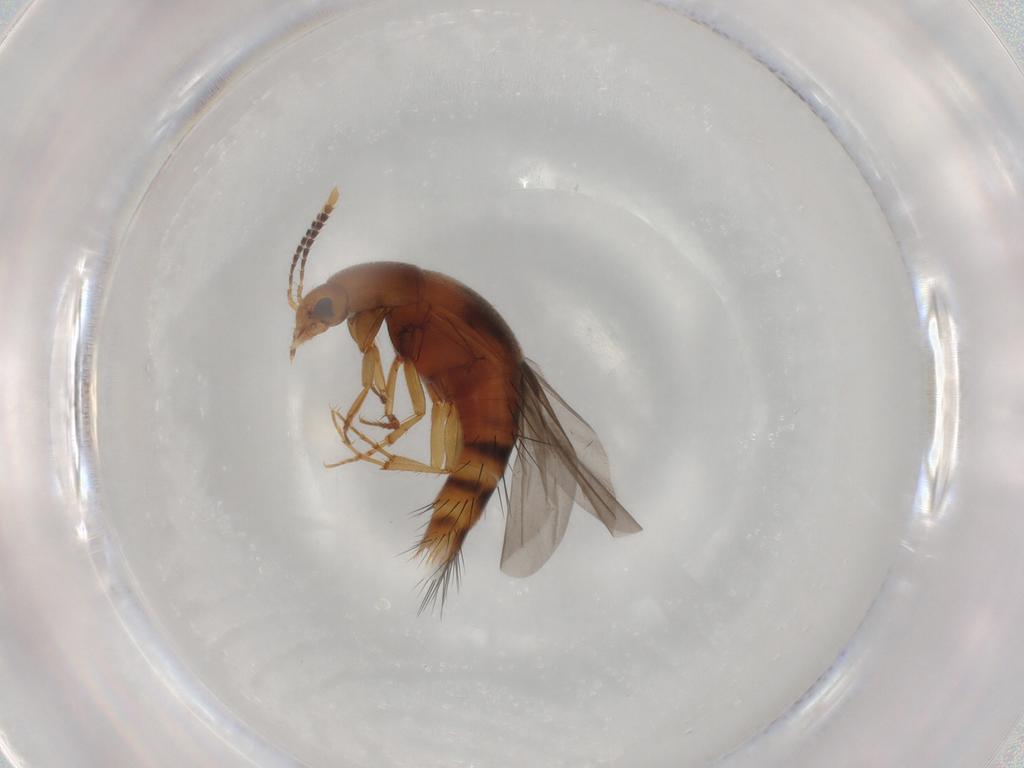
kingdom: Animalia
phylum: Arthropoda
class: Insecta
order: Coleoptera
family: Staphylinidae
